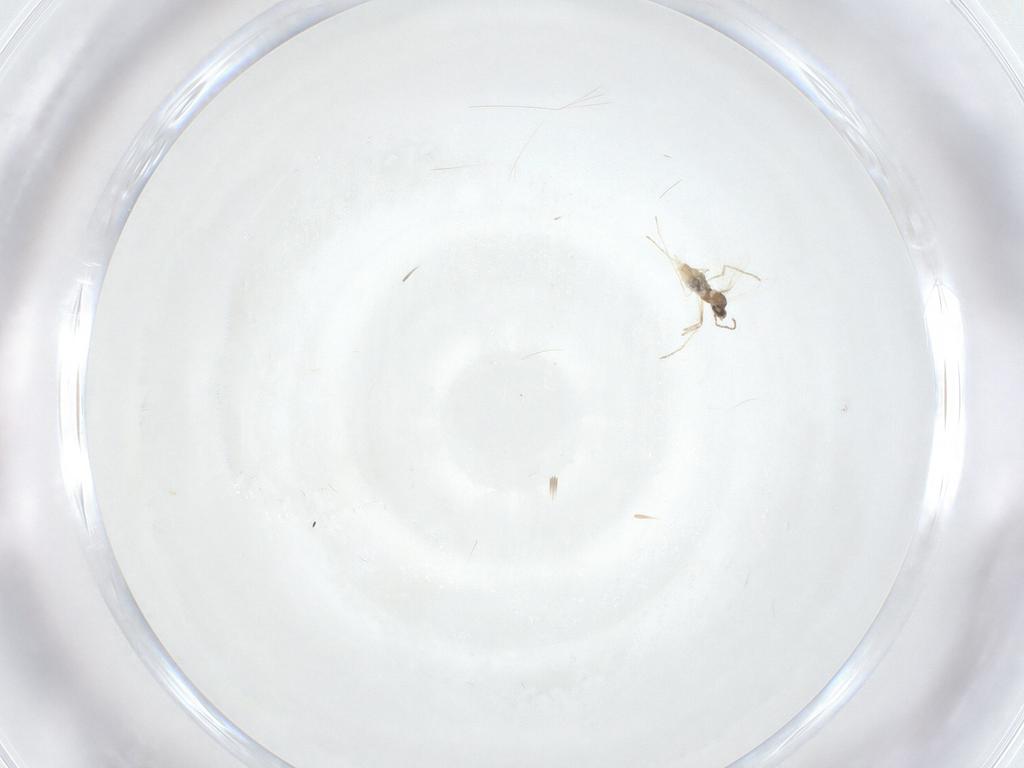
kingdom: Animalia
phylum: Arthropoda
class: Insecta
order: Diptera
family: Cecidomyiidae
